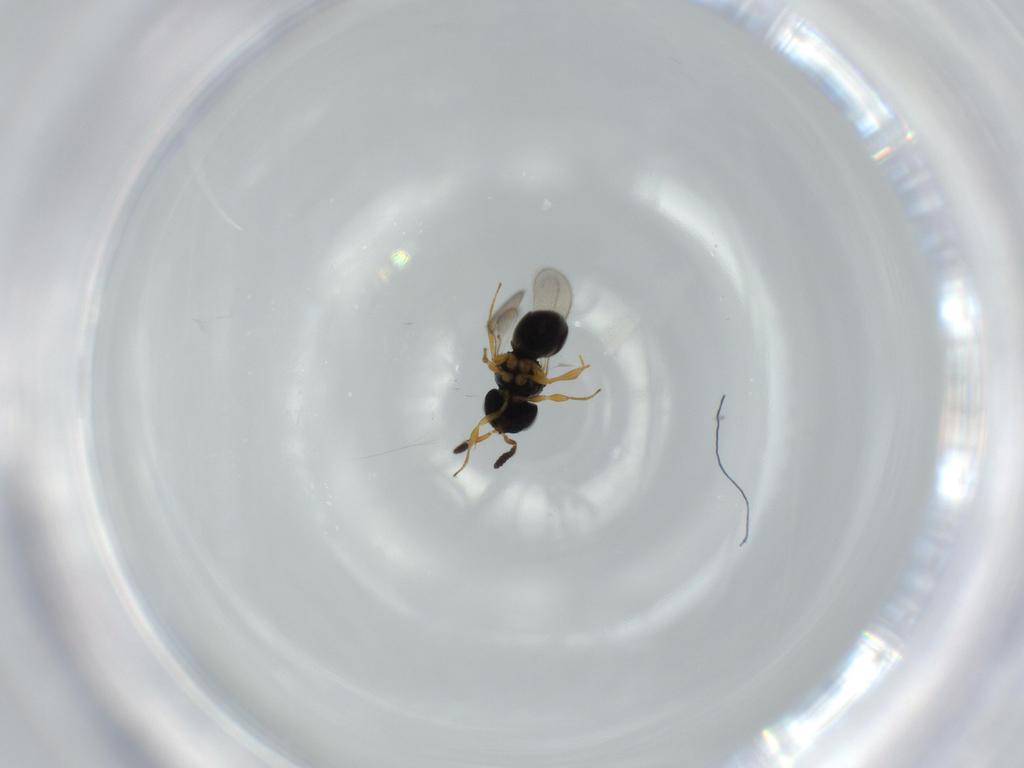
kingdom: Animalia
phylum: Arthropoda
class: Insecta
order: Hymenoptera
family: Scelionidae
